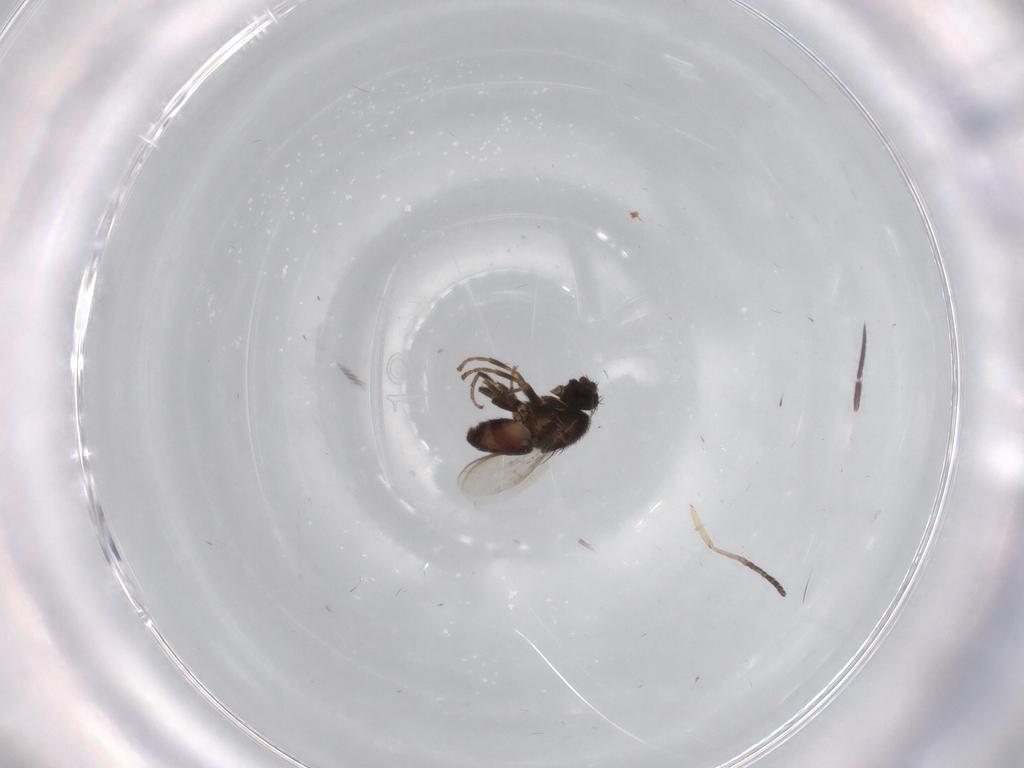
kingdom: Animalia
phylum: Arthropoda
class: Insecta
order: Diptera
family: Sphaeroceridae
